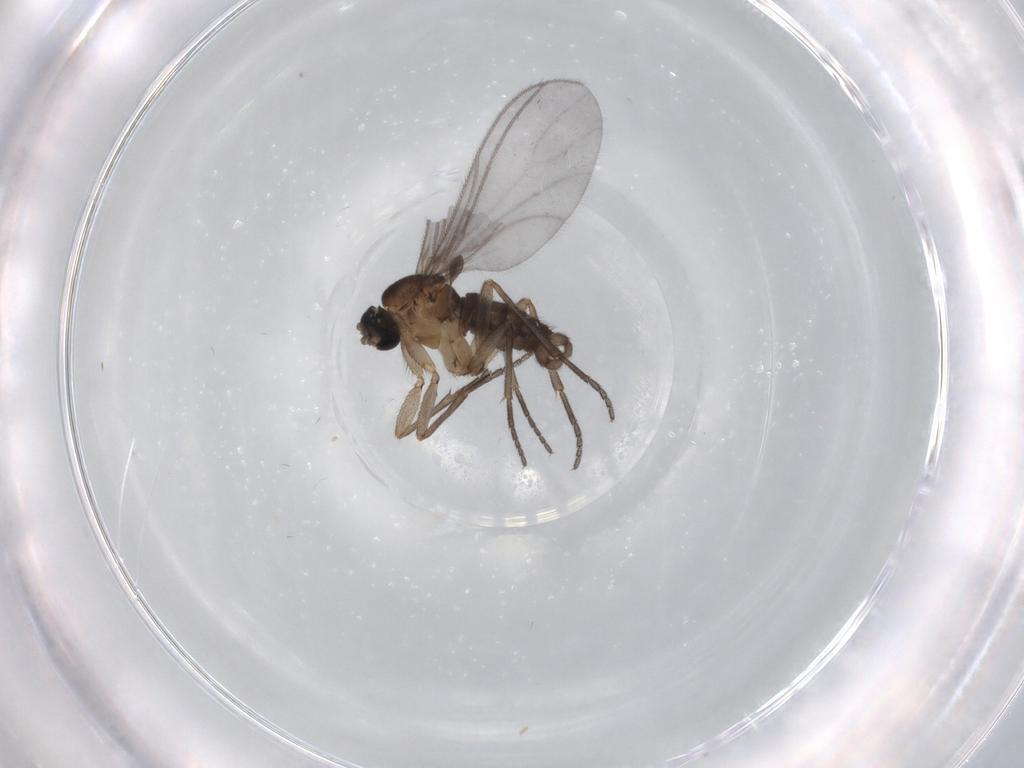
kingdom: Animalia
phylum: Arthropoda
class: Insecta
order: Diptera
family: Sciaridae
